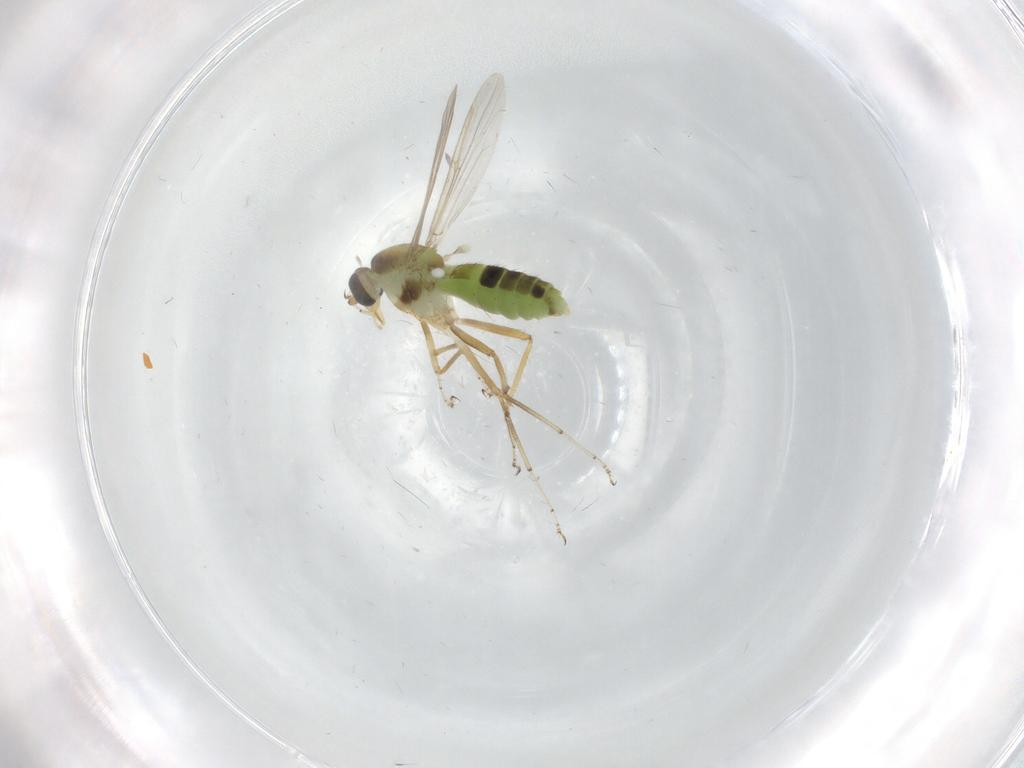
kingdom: Animalia
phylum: Arthropoda
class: Insecta
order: Diptera
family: Ceratopogonidae
